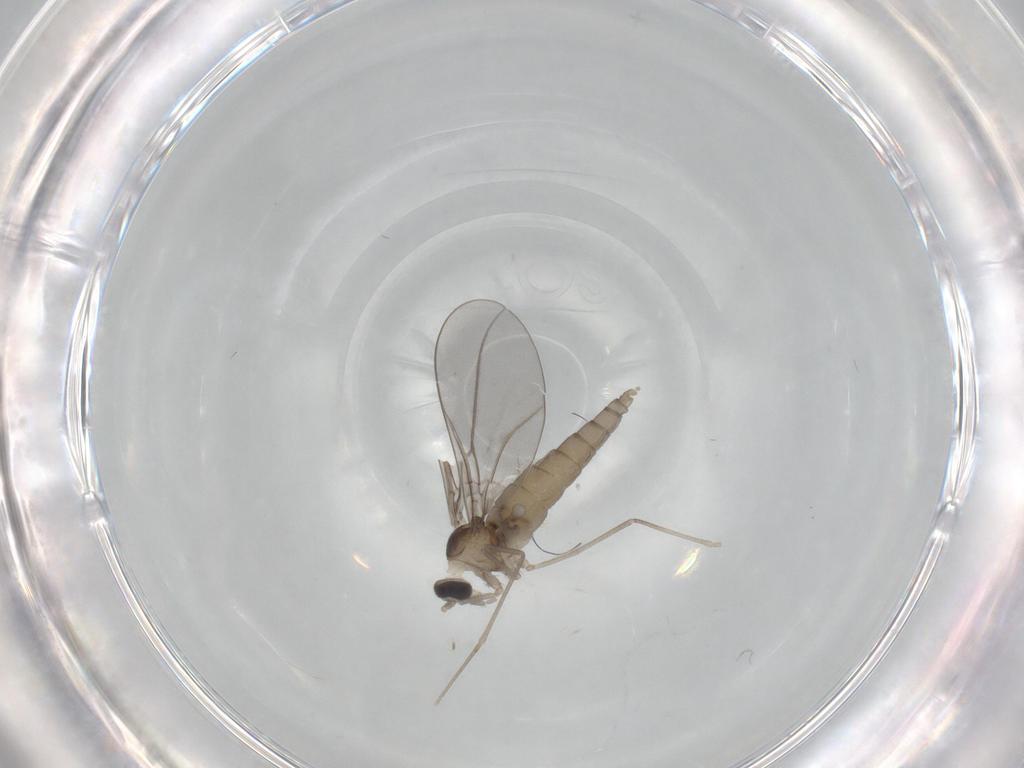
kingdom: Animalia
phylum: Arthropoda
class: Insecta
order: Diptera
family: Cecidomyiidae
